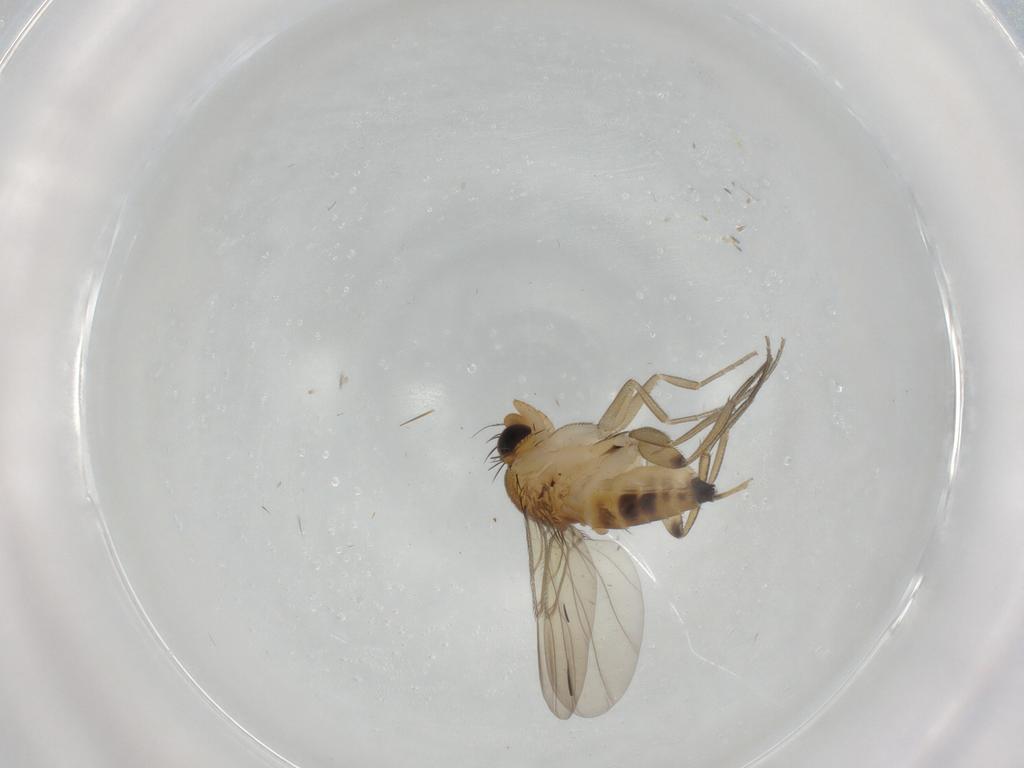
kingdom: Animalia
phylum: Arthropoda
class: Insecta
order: Diptera
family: Phoridae
